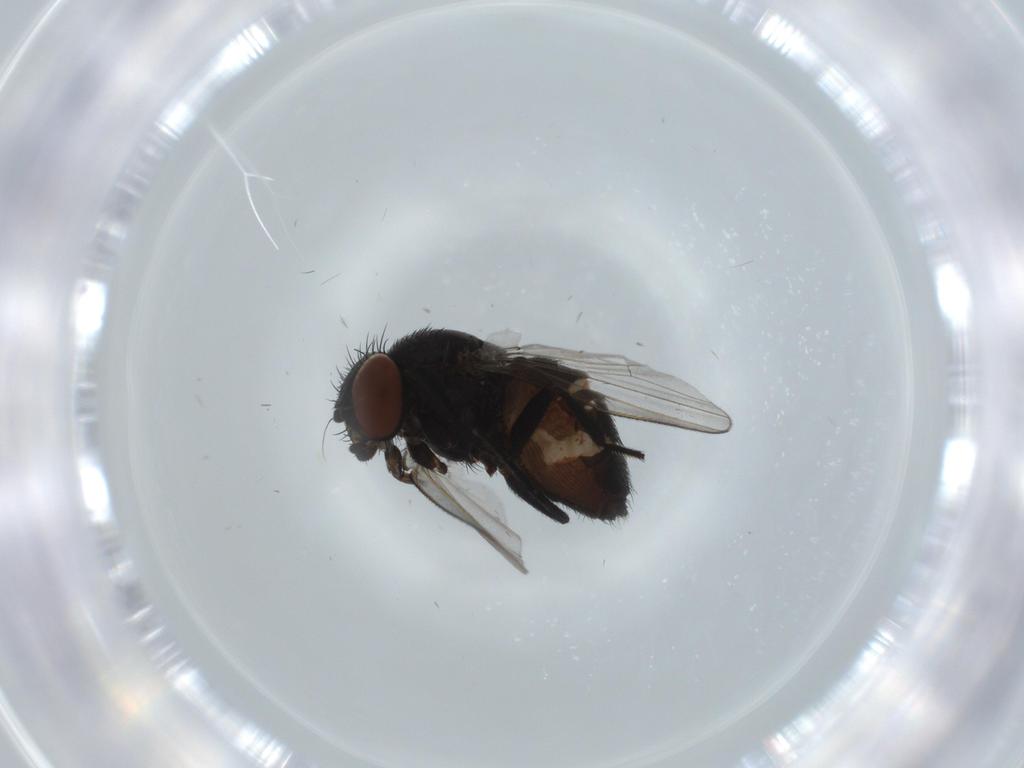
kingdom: Animalia
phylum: Arthropoda
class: Insecta
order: Diptera
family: Milichiidae
